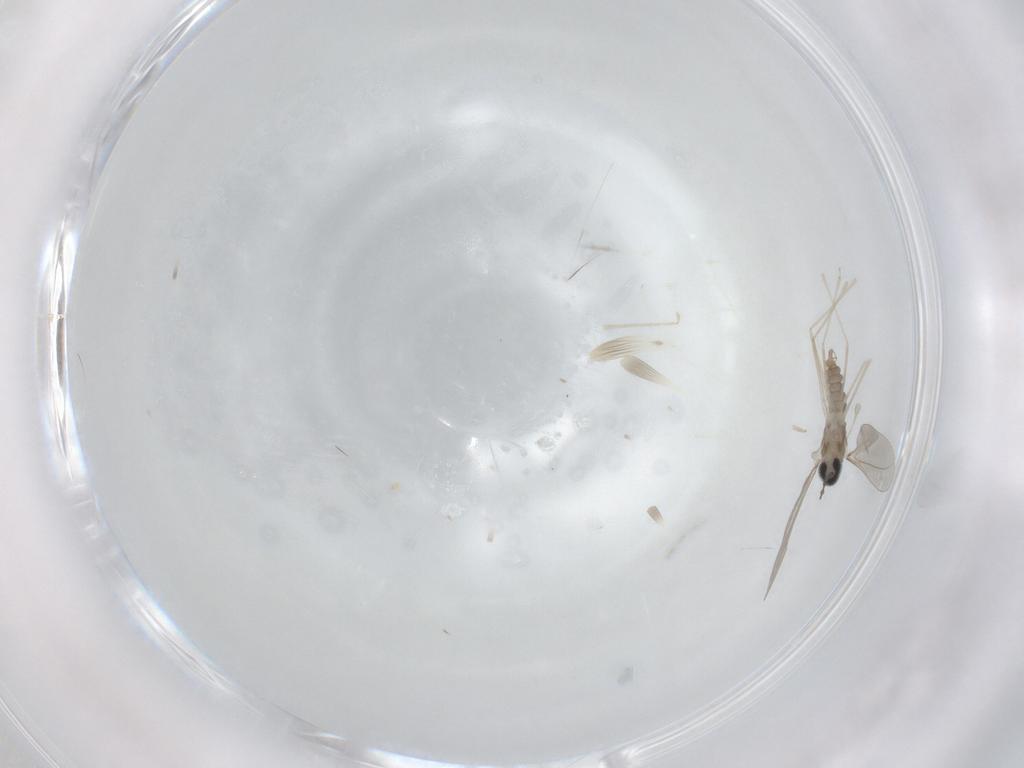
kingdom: Animalia
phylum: Arthropoda
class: Insecta
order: Diptera
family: Cecidomyiidae
